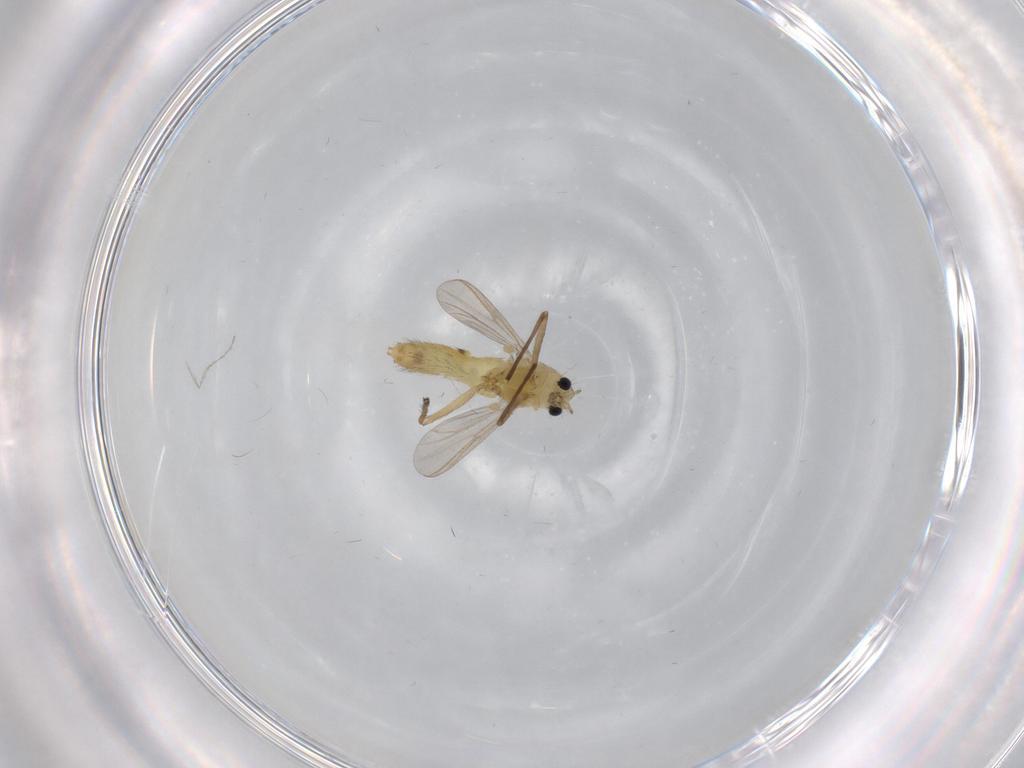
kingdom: Animalia
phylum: Arthropoda
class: Insecta
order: Diptera
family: Chironomidae
